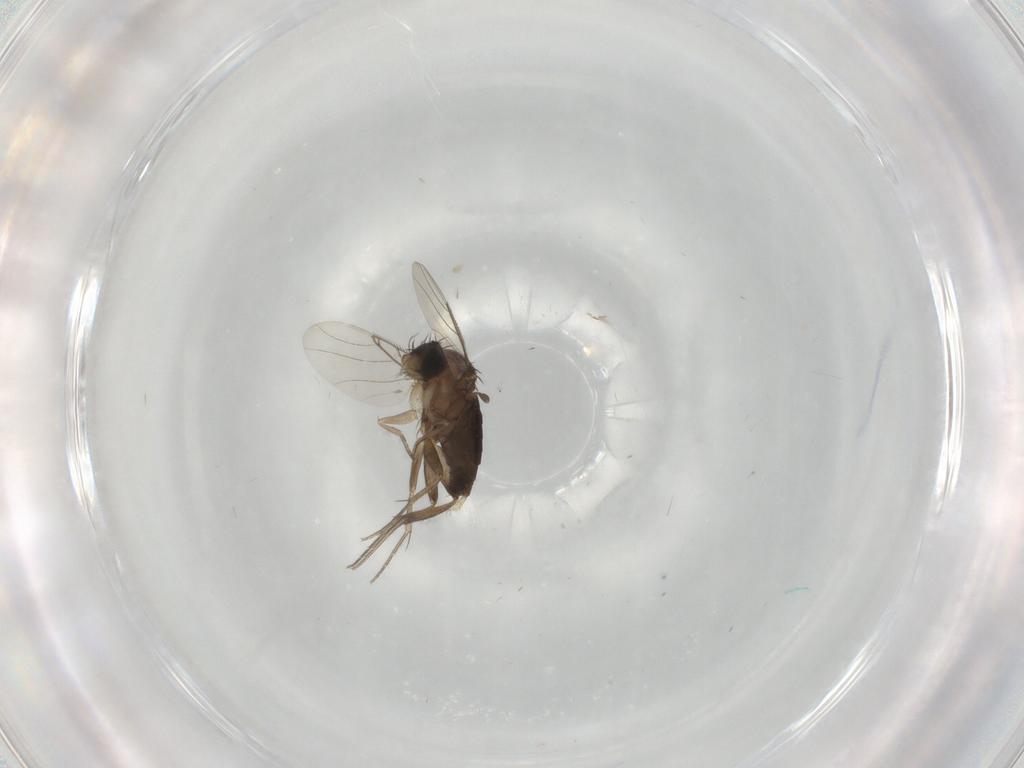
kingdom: Animalia
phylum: Arthropoda
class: Insecta
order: Diptera
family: Phoridae
